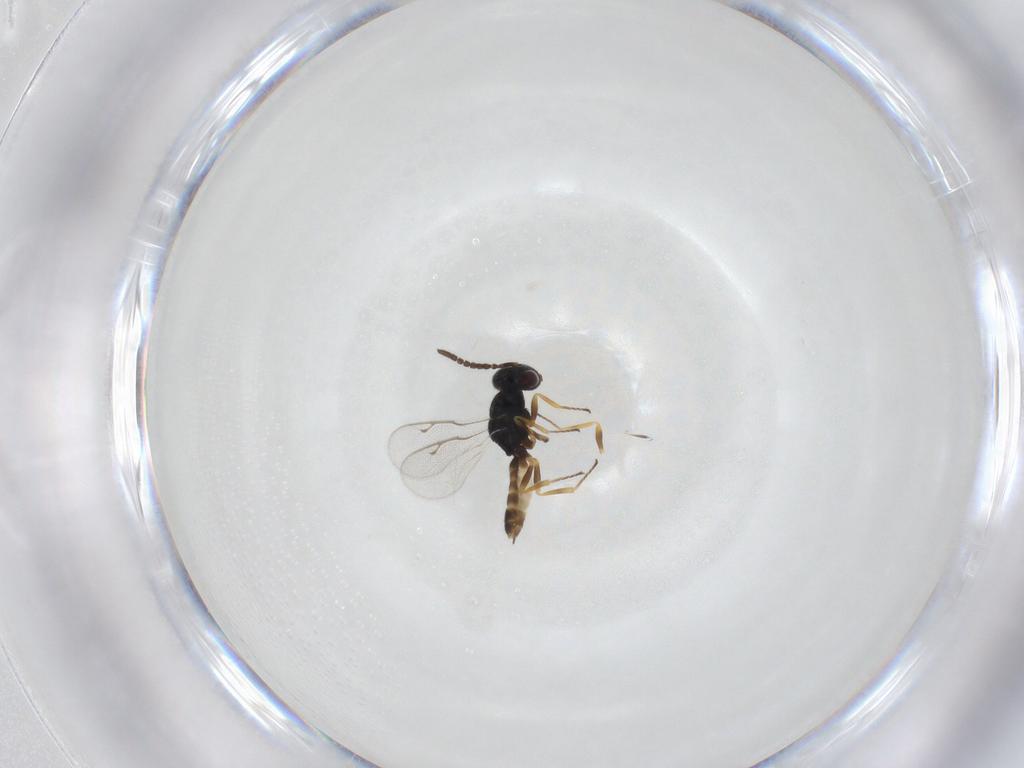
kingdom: Animalia
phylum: Arthropoda
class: Insecta
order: Hymenoptera
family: Pteromalidae
